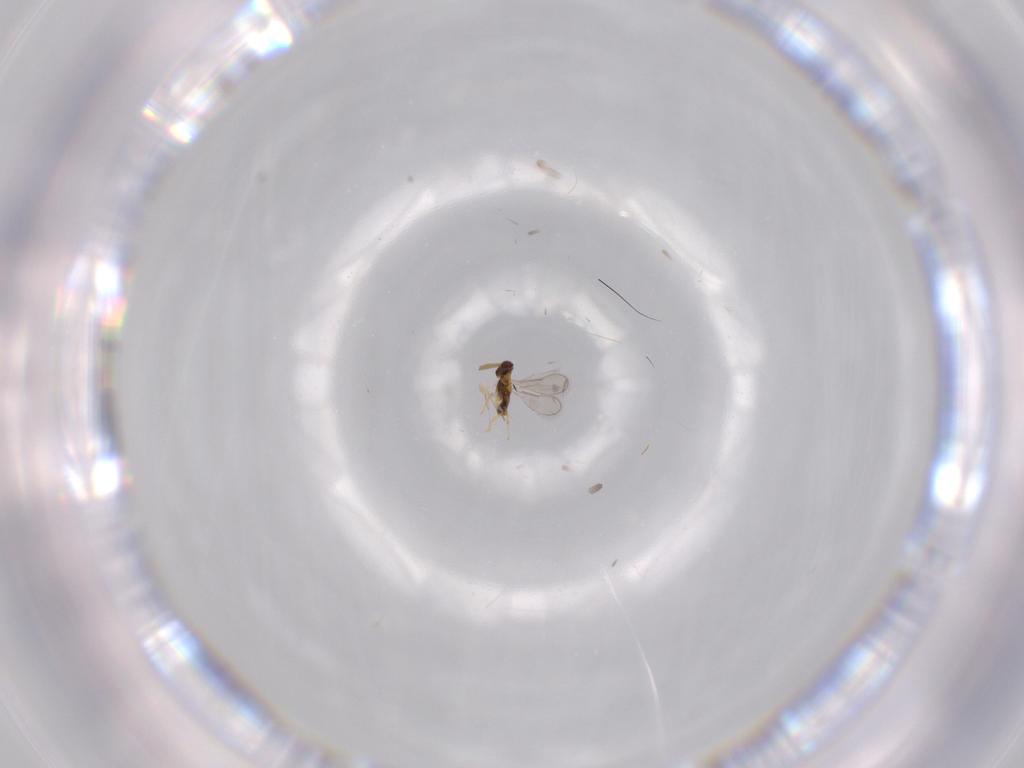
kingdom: Animalia
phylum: Arthropoda
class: Insecta
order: Hymenoptera
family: Aphelinidae
